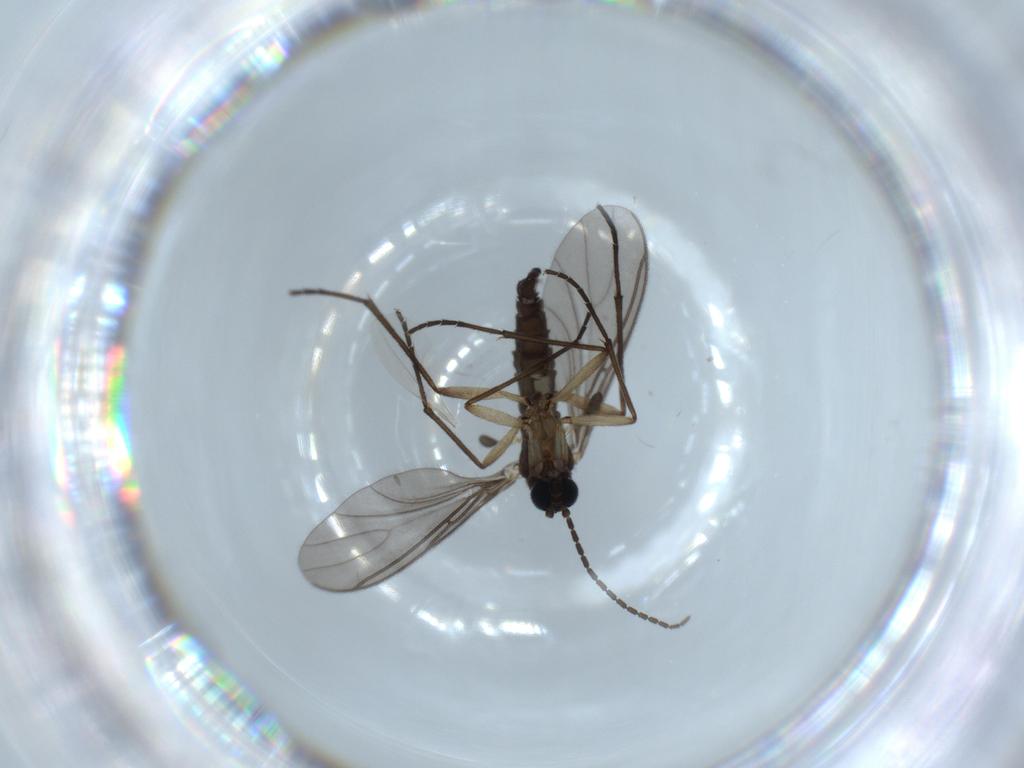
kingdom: Animalia
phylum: Arthropoda
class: Insecta
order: Diptera
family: Sciaridae
